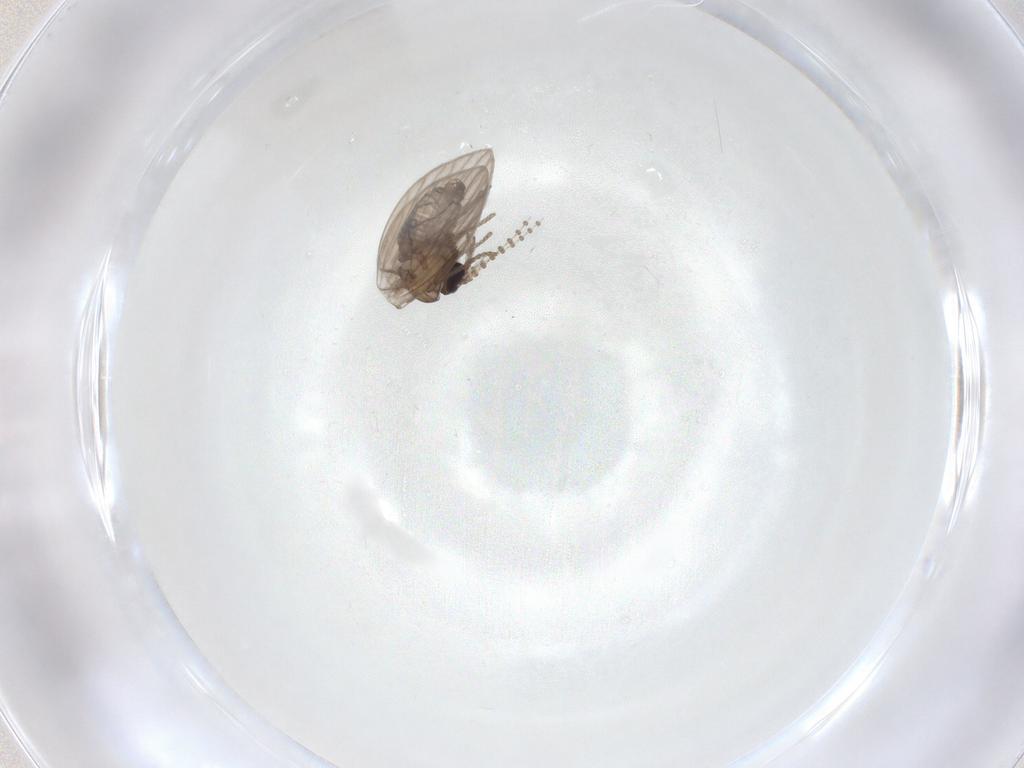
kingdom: Animalia
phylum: Arthropoda
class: Insecta
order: Diptera
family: Psychodidae
